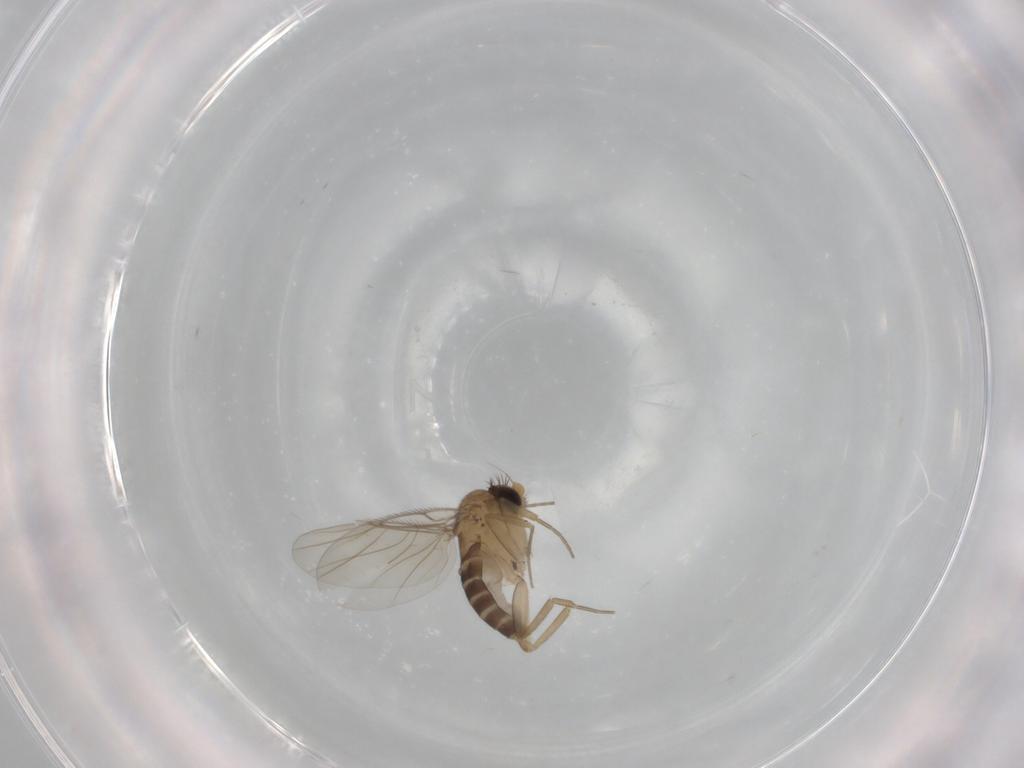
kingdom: Animalia
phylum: Arthropoda
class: Insecta
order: Diptera
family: Phoridae
